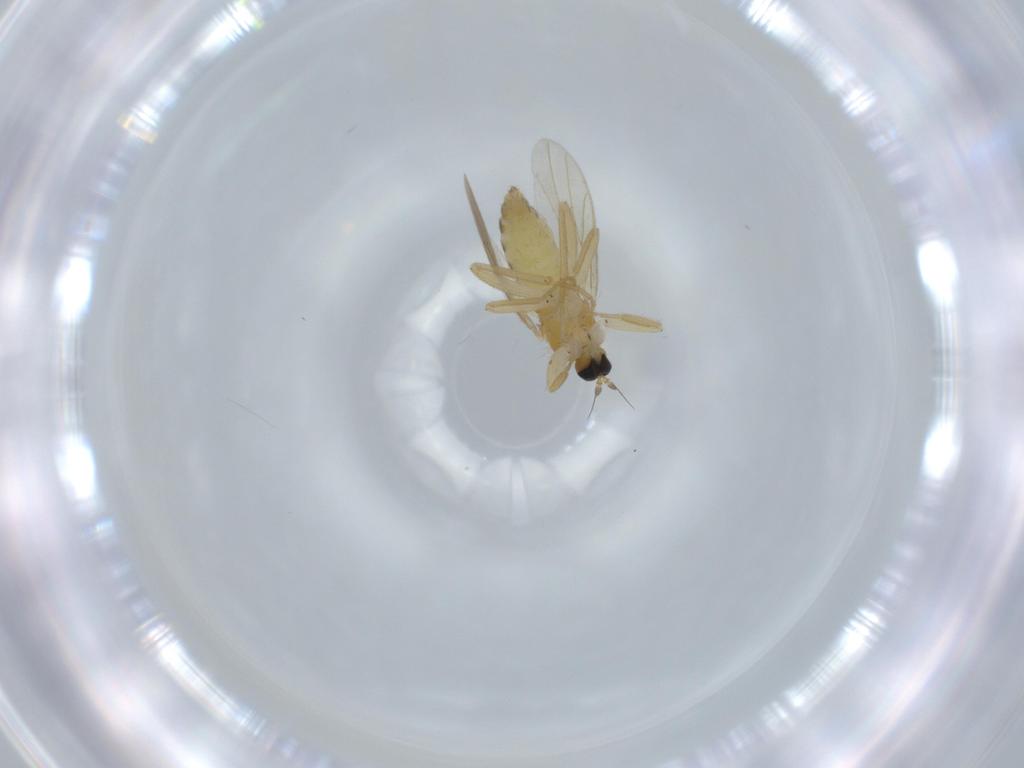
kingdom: Animalia
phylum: Arthropoda
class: Insecta
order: Diptera
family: Hybotidae
